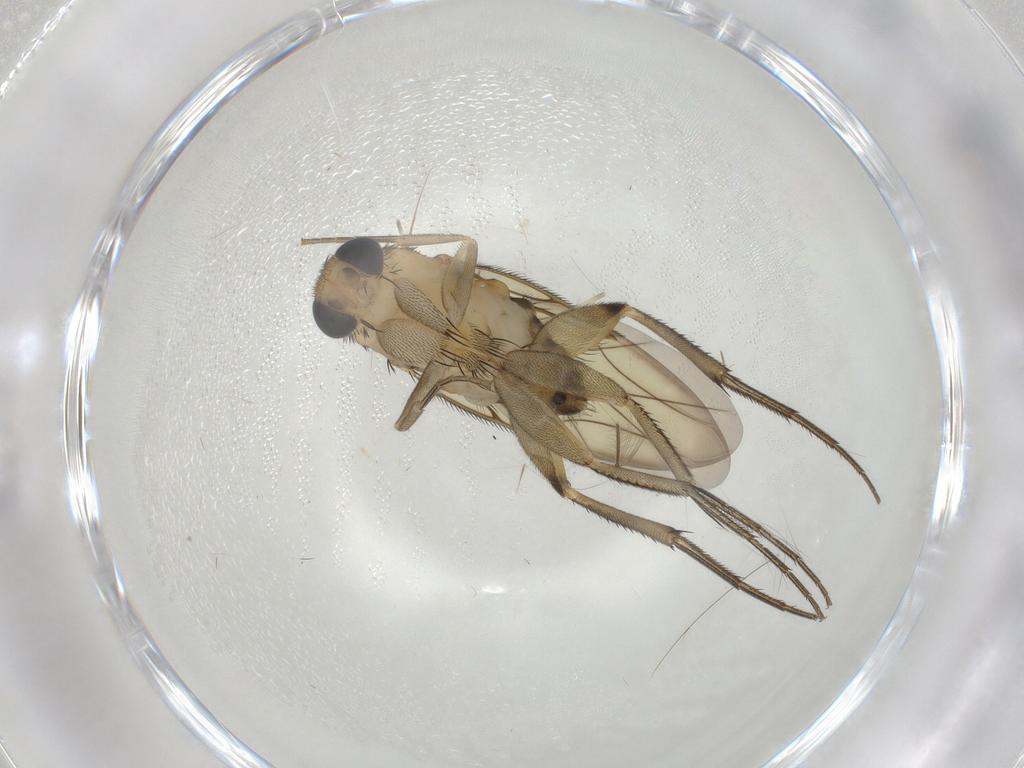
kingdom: Animalia
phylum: Arthropoda
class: Insecta
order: Diptera
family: Phoridae
